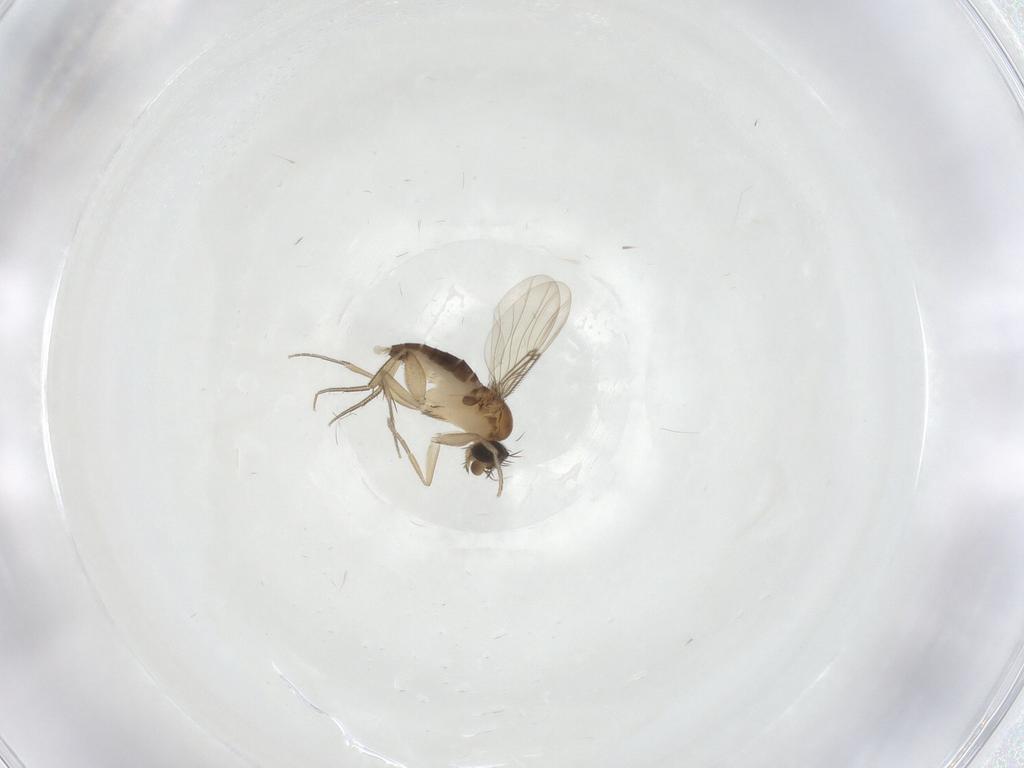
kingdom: Animalia
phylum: Arthropoda
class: Insecta
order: Diptera
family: Phoridae
